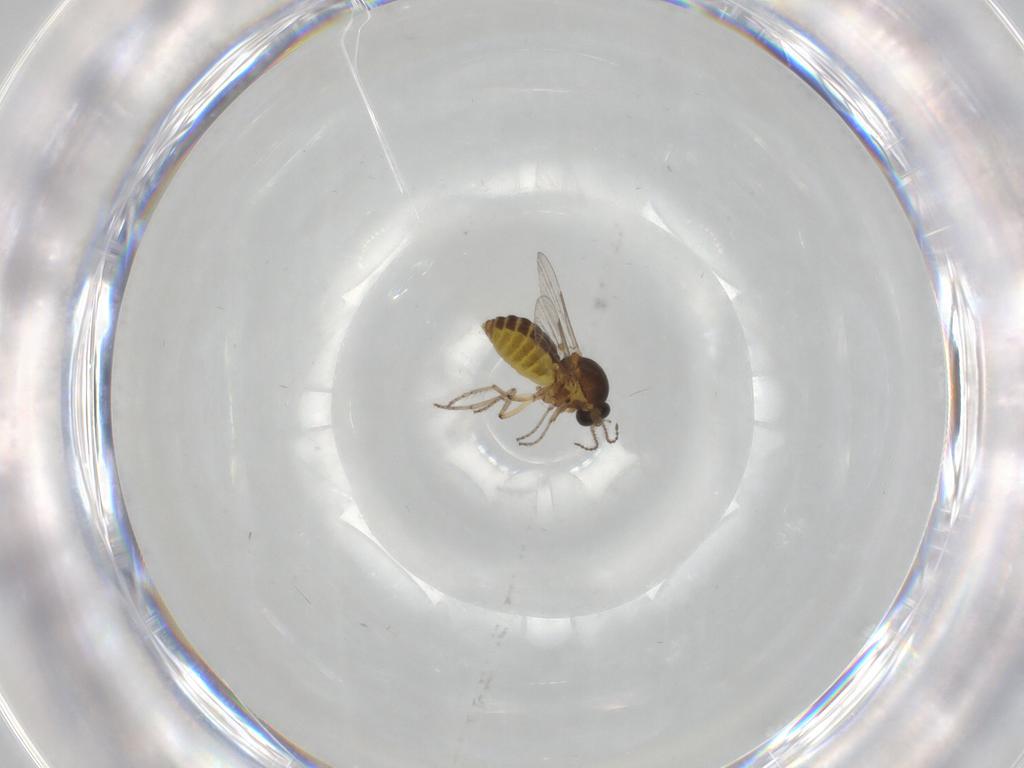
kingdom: Animalia
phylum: Arthropoda
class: Insecta
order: Diptera
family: Ceratopogonidae
